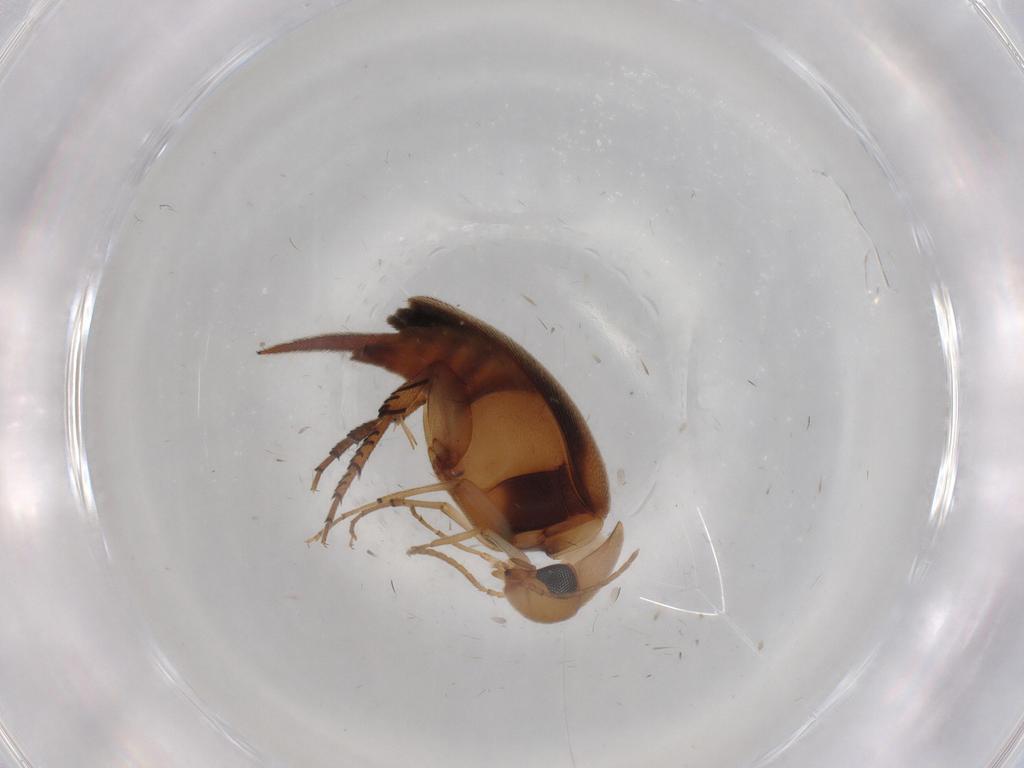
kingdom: Animalia
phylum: Arthropoda
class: Insecta
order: Coleoptera
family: Mordellidae
